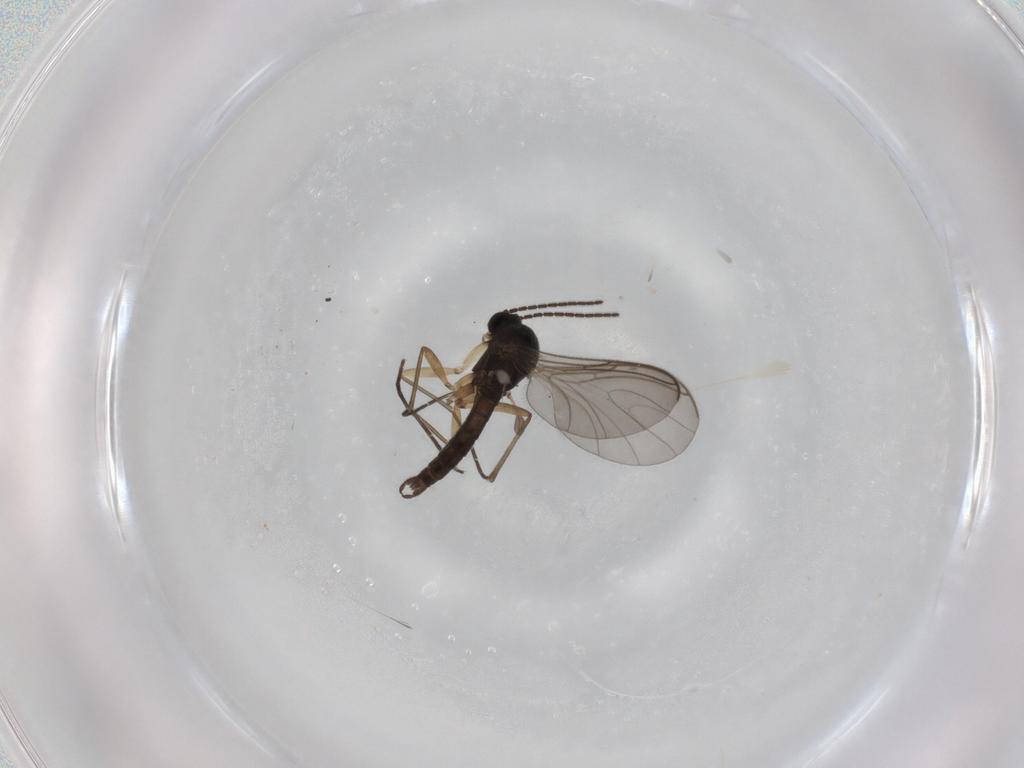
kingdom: Animalia
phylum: Arthropoda
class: Insecta
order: Diptera
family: Sciaridae
